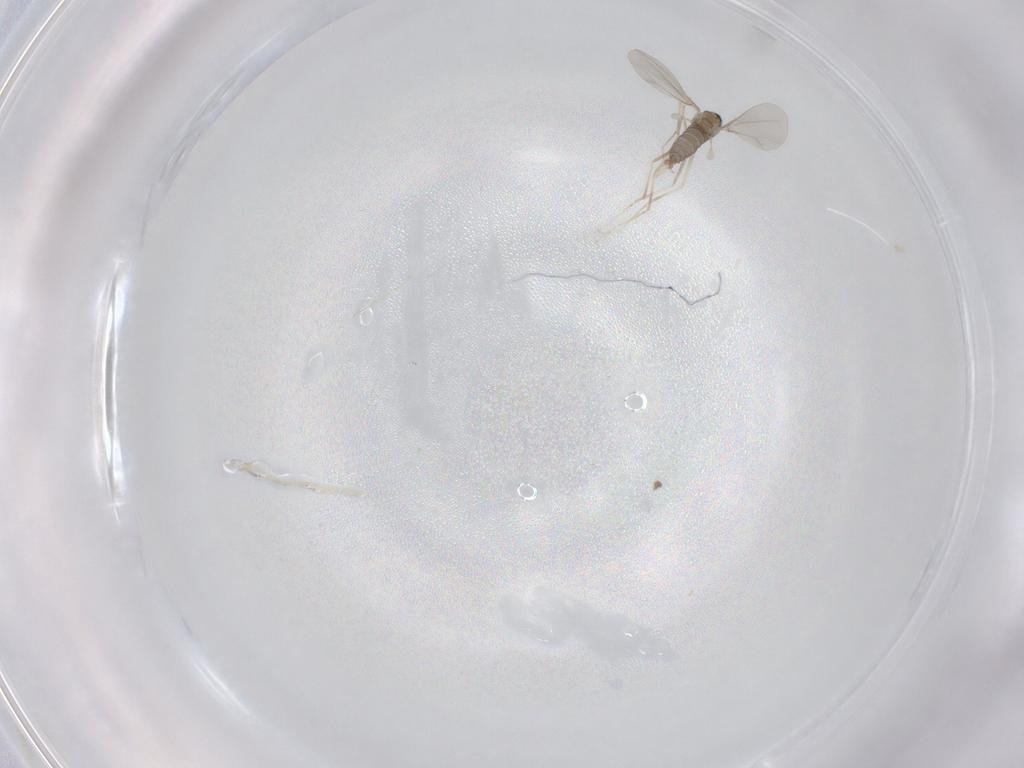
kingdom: Animalia
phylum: Arthropoda
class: Insecta
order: Diptera
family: Cecidomyiidae
